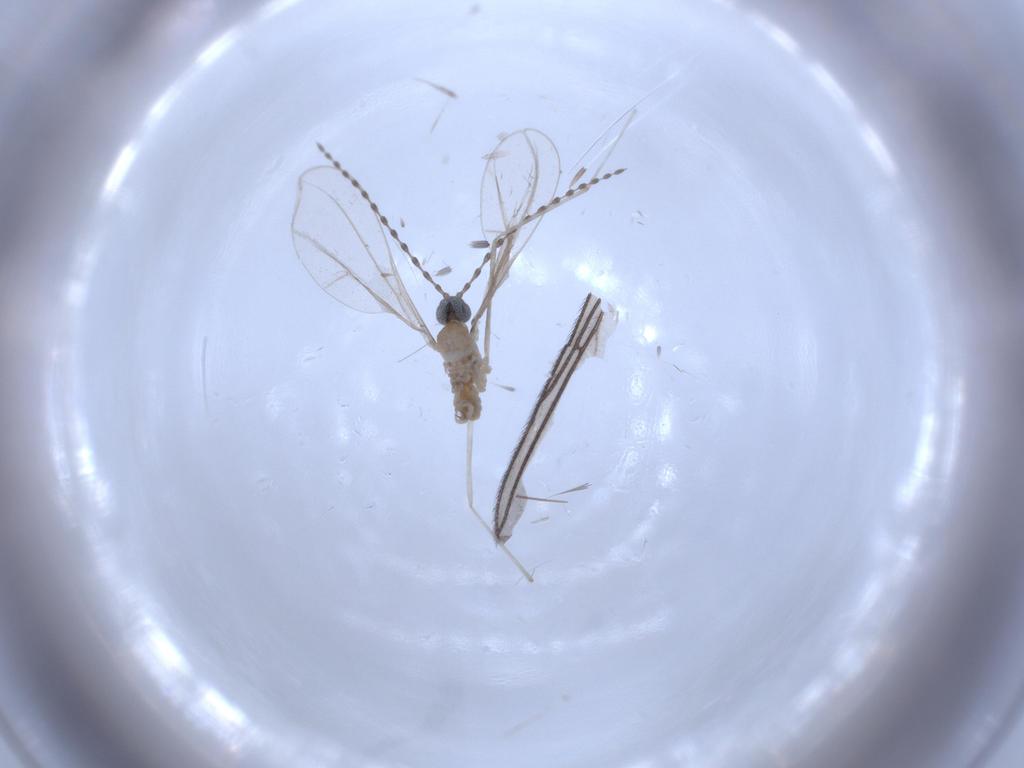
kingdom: Animalia
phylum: Arthropoda
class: Insecta
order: Diptera
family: Cecidomyiidae
